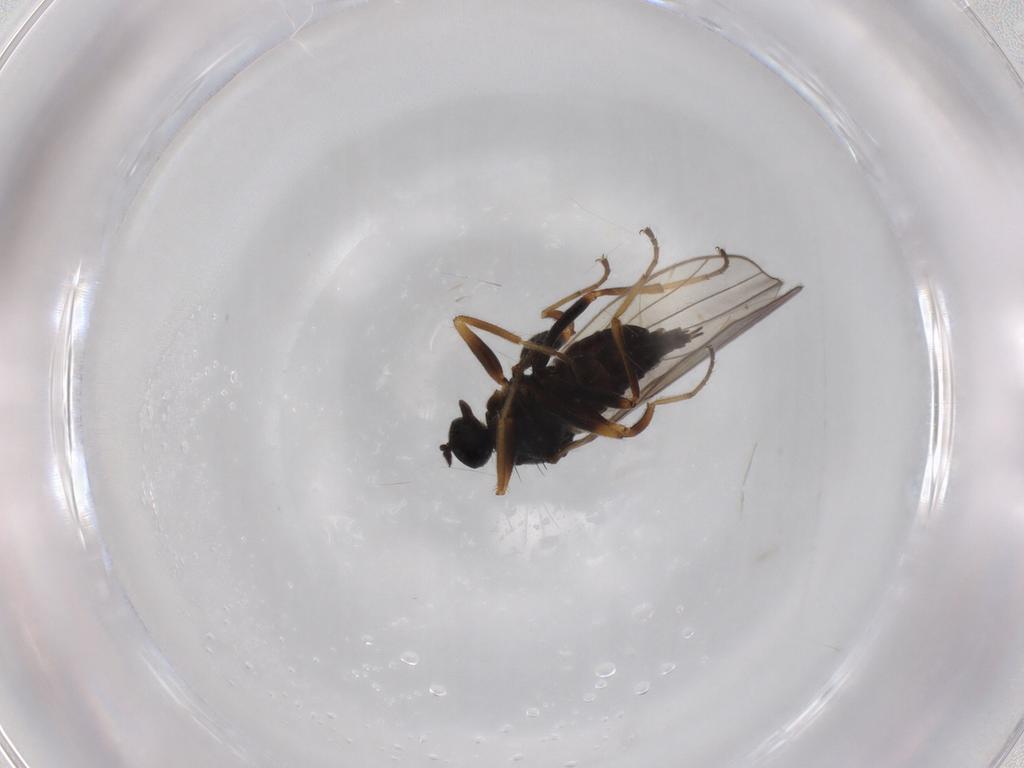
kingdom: Animalia
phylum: Arthropoda
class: Insecta
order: Diptera
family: Hybotidae
